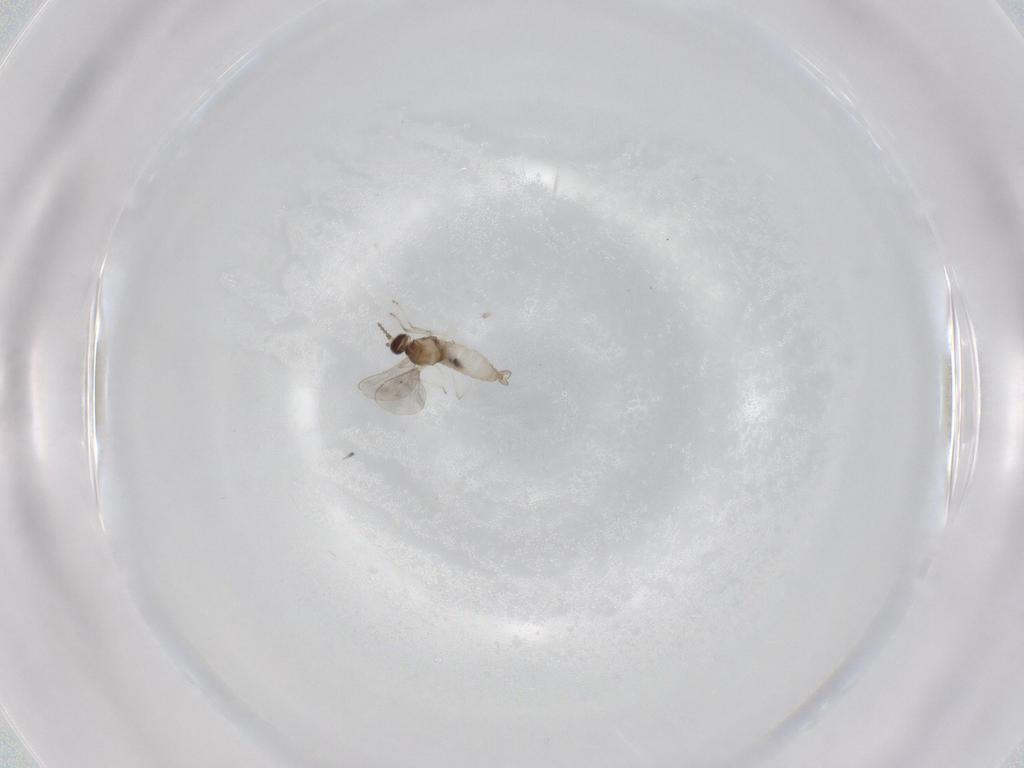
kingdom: Animalia
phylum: Arthropoda
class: Insecta
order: Diptera
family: Cecidomyiidae
